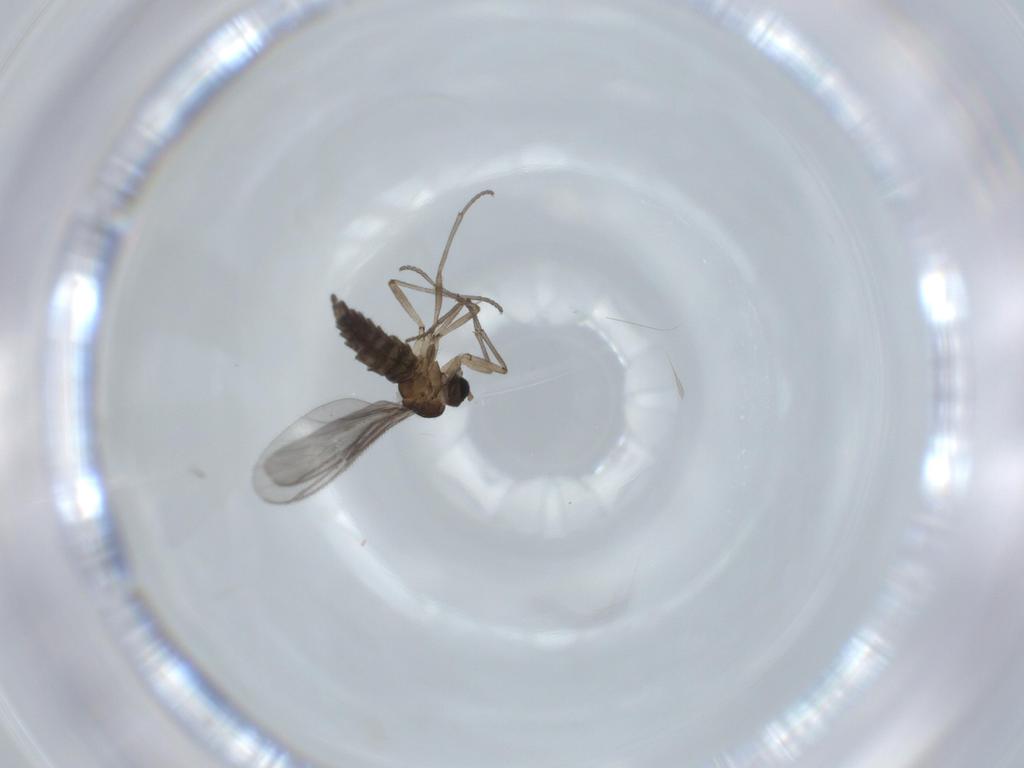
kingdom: Animalia
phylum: Arthropoda
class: Insecta
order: Diptera
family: Sciaridae
